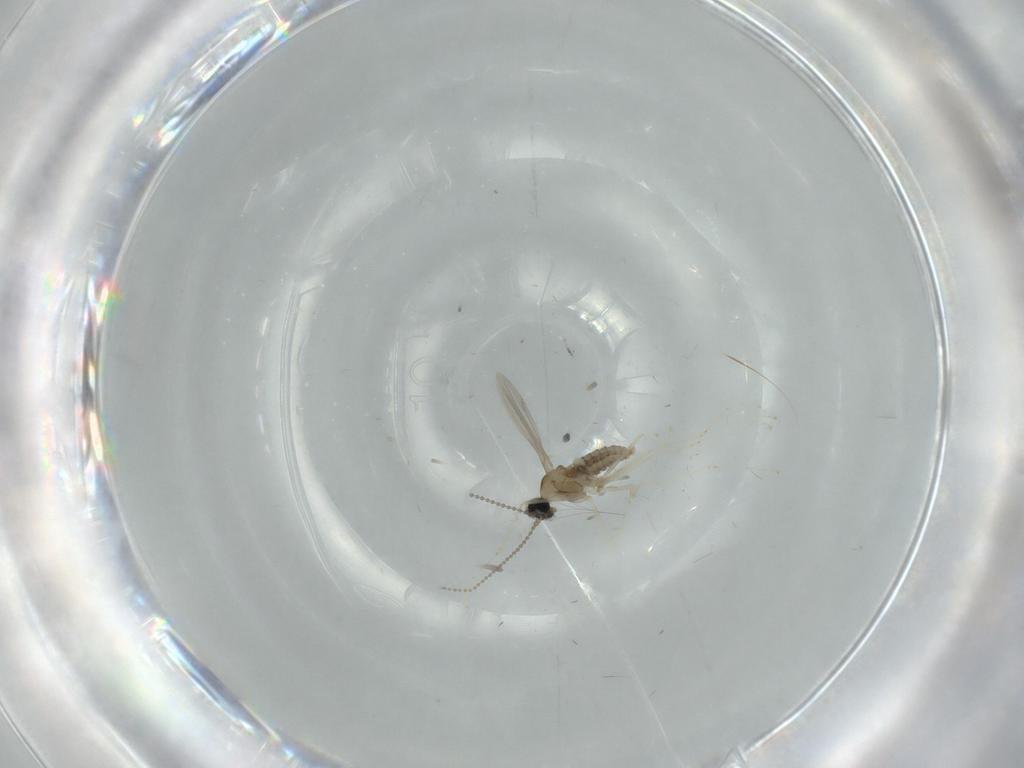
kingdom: Animalia
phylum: Arthropoda
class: Insecta
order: Diptera
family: Tabanidae
